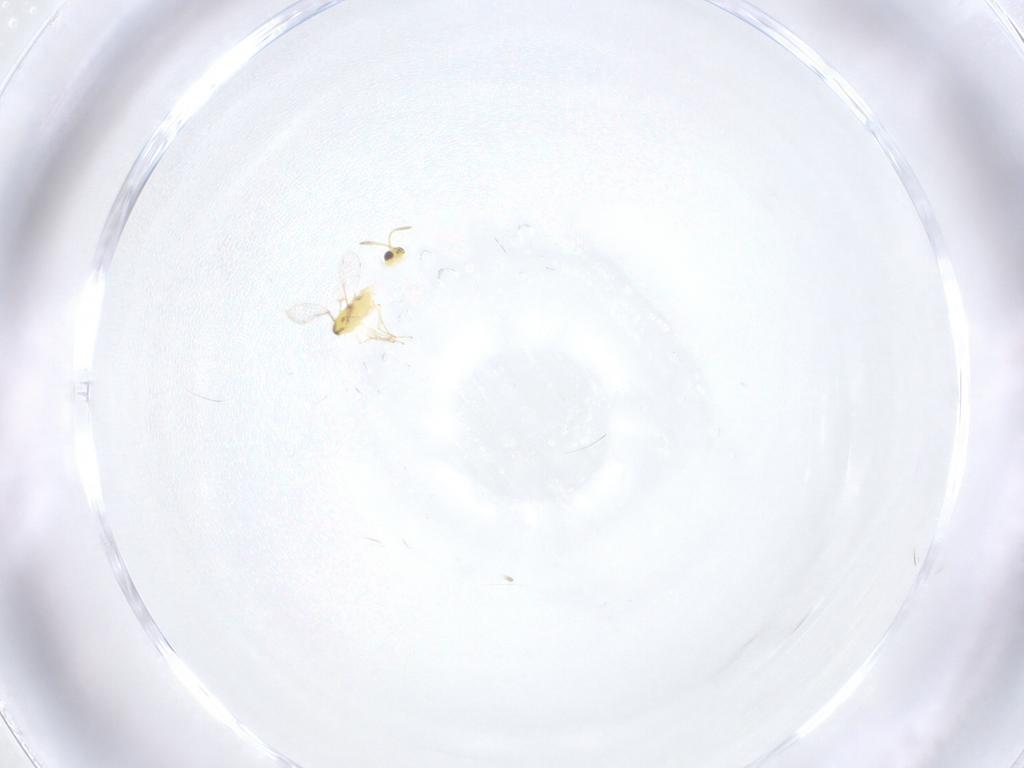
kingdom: Animalia
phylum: Arthropoda
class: Insecta
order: Hymenoptera
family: Aphelinidae
